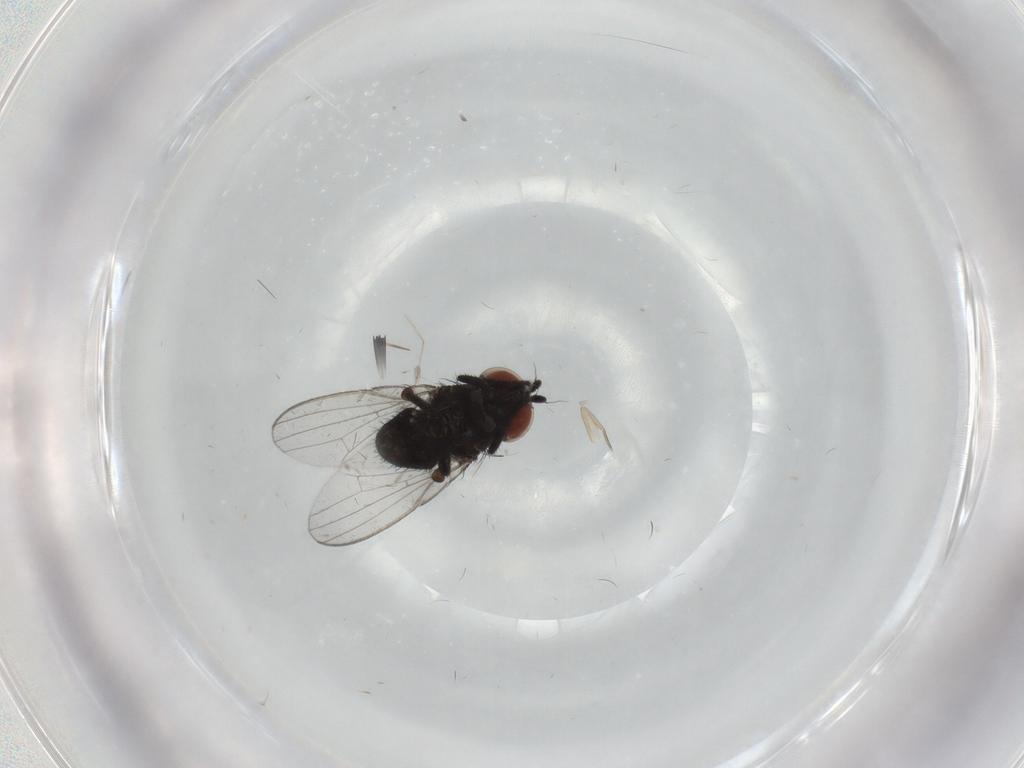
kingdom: Animalia
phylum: Arthropoda
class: Insecta
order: Diptera
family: Milichiidae
